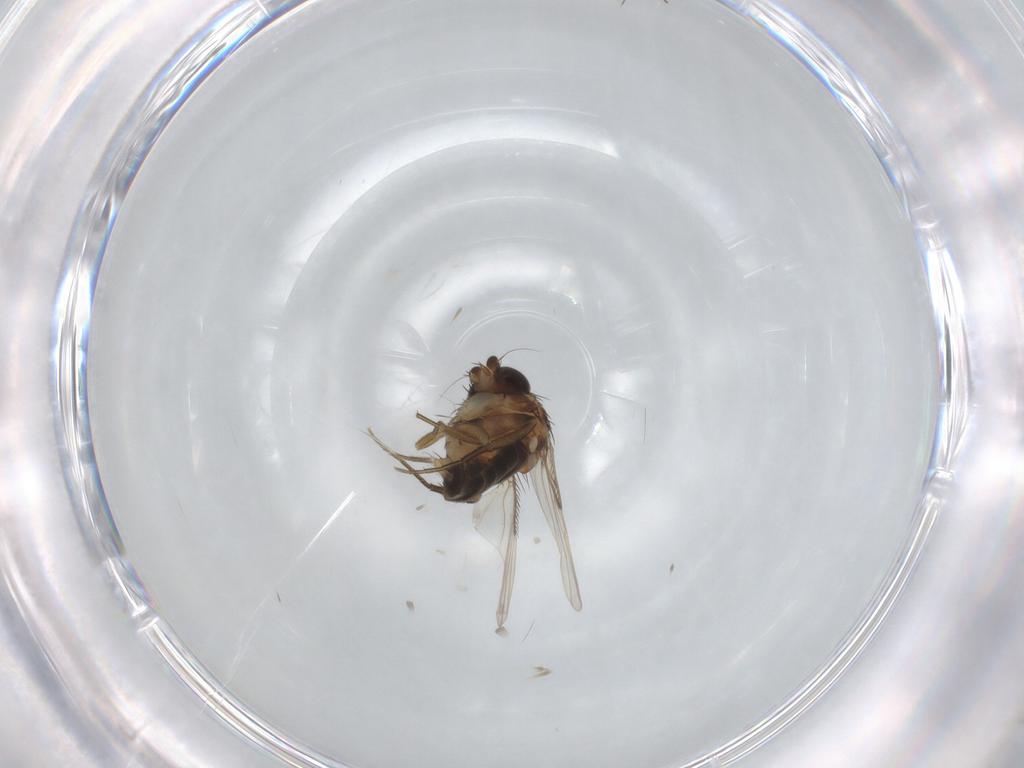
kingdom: Animalia
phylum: Arthropoda
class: Insecta
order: Diptera
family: Phoridae
